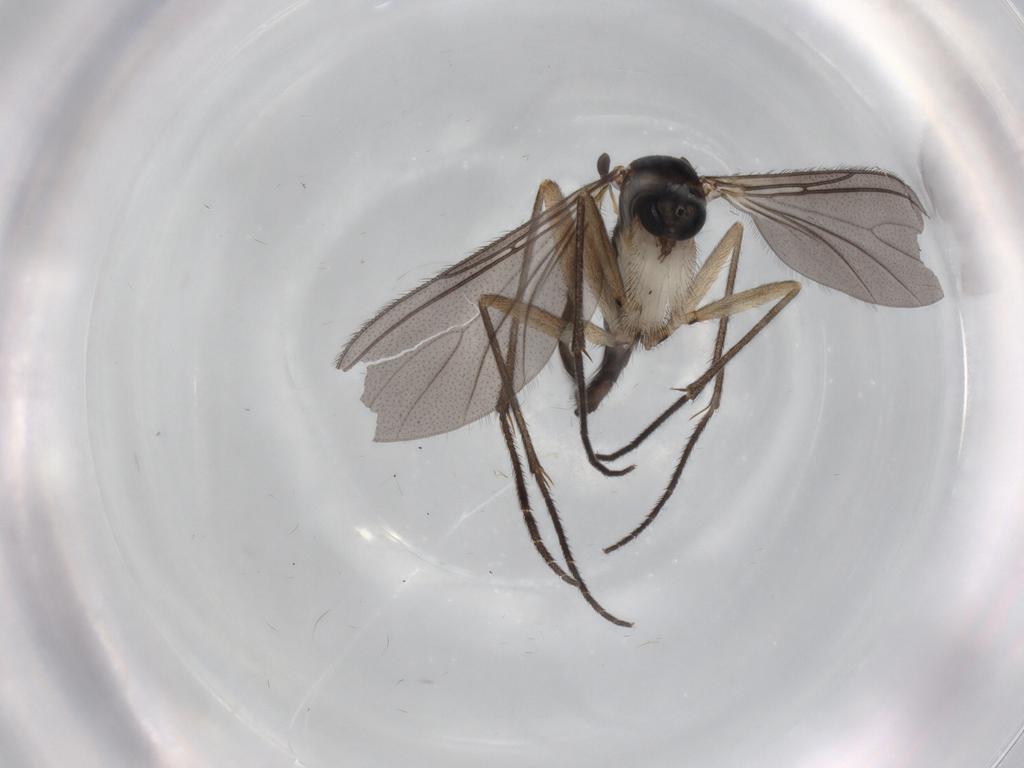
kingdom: Animalia
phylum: Arthropoda
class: Insecta
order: Diptera
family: Sciaridae
